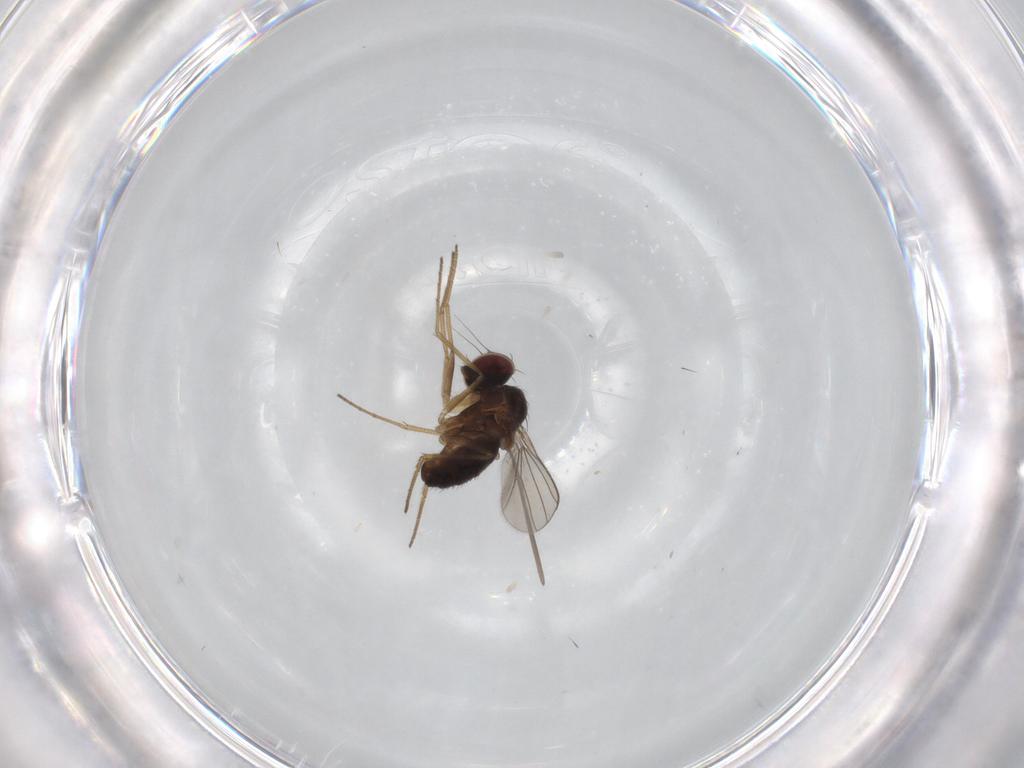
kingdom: Animalia
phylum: Arthropoda
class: Insecta
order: Diptera
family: Dolichopodidae
